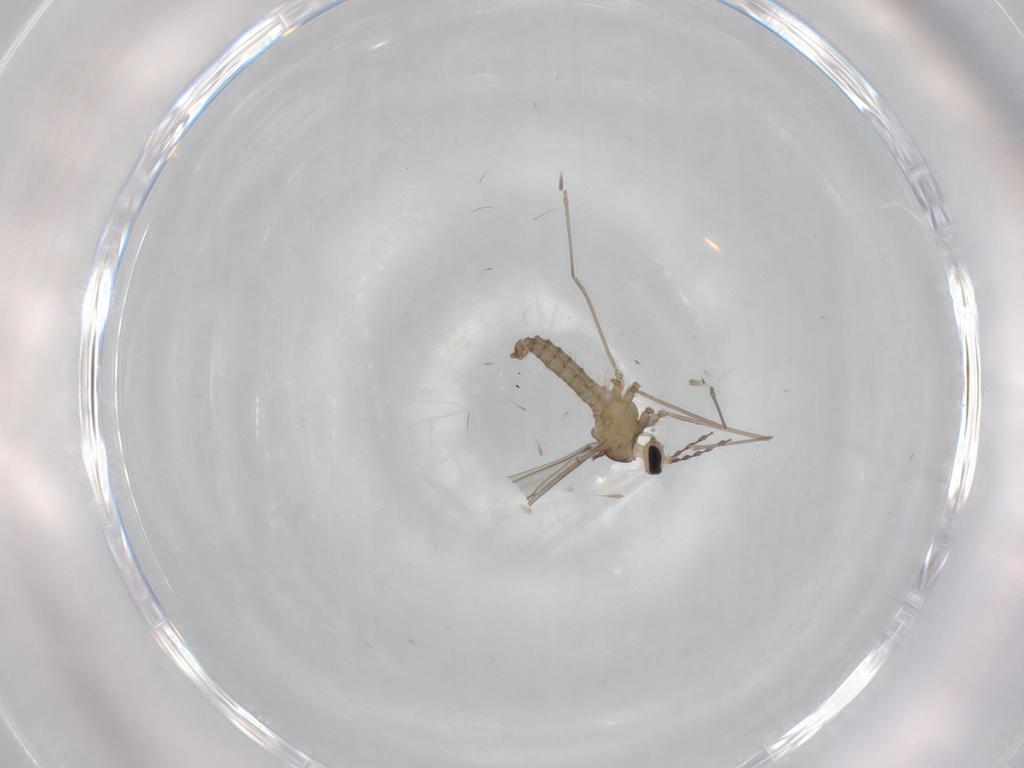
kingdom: Animalia
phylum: Arthropoda
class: Insecta
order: Diptera
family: Cecidomyiidae
